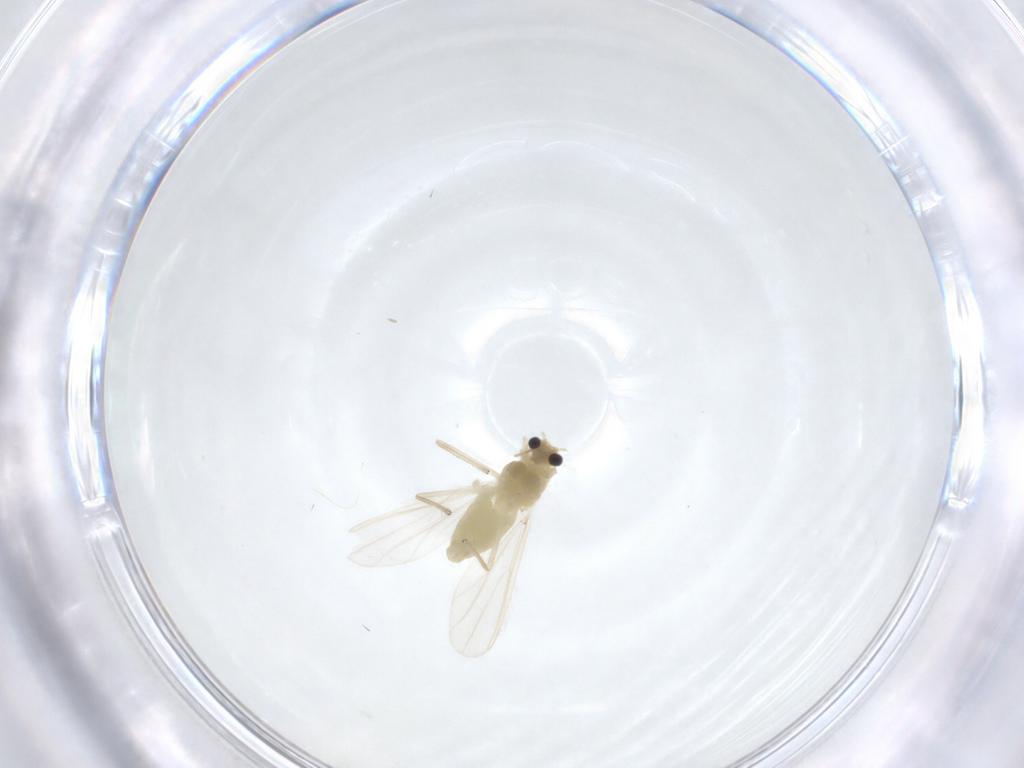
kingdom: Animalia
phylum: Arthropoda
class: Insecta
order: Diptera
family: Chironomidae
